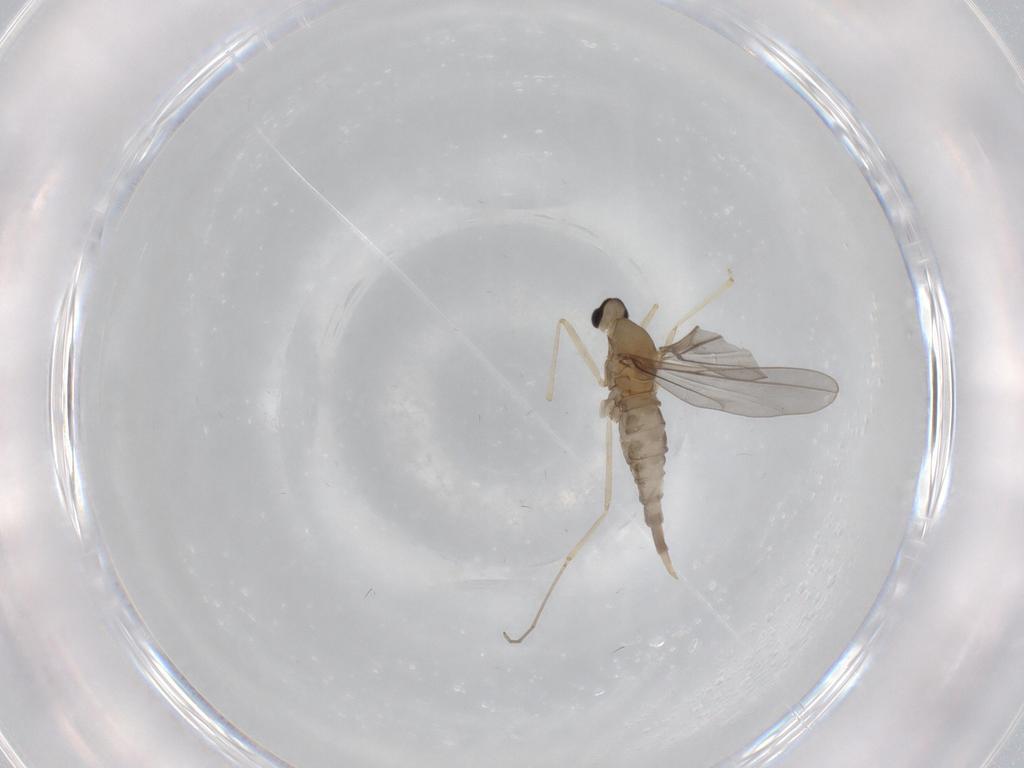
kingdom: Animalia
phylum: Arthropoda
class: Insecta
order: Diptera
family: Cecidomyiidae
